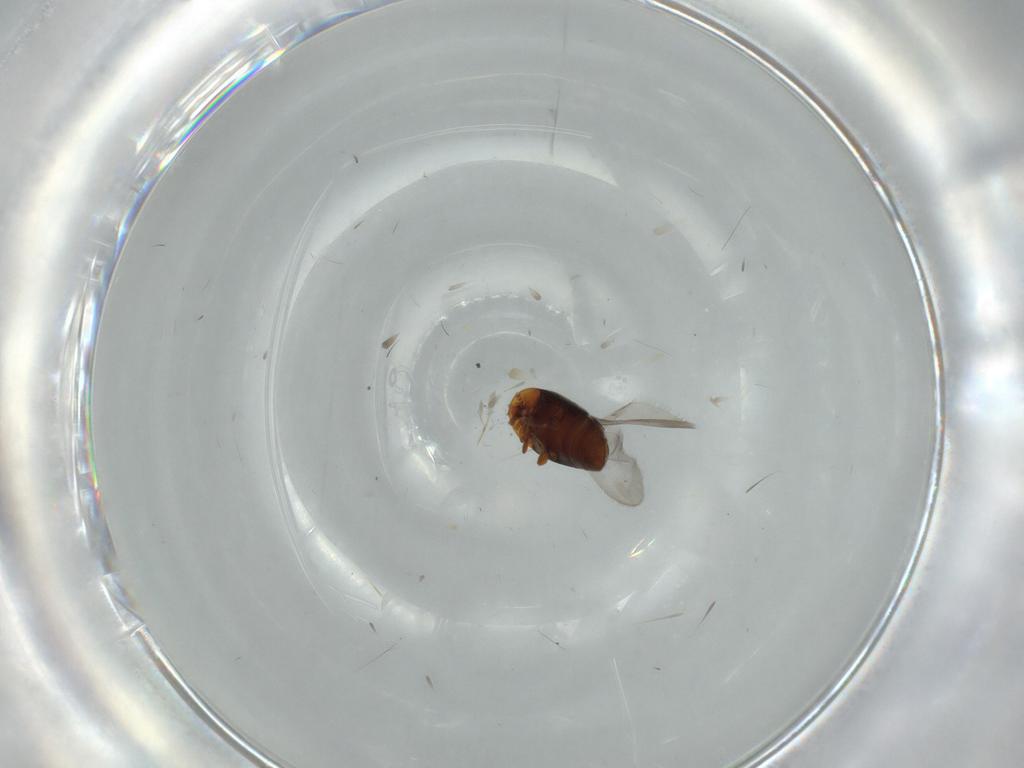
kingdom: Animalia
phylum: Arthropoda
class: Insecta
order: Coleoptera
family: Corylophidae
